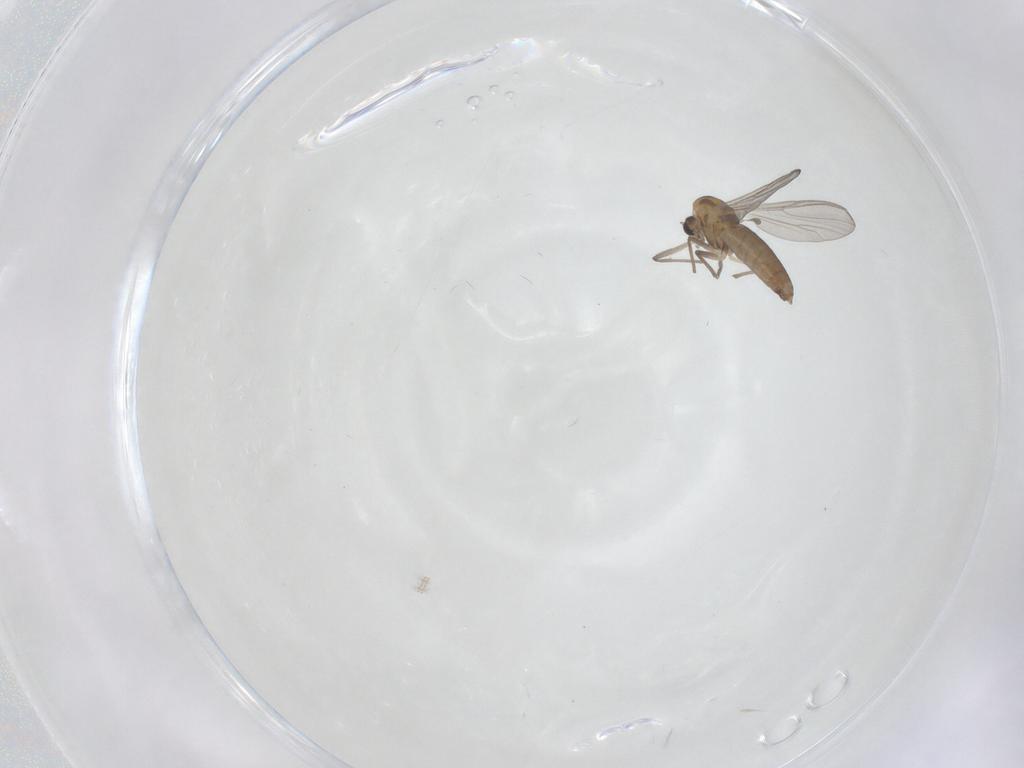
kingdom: Animalia
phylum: Arthropoda
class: Insecta
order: Diptera
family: Chironomidae
